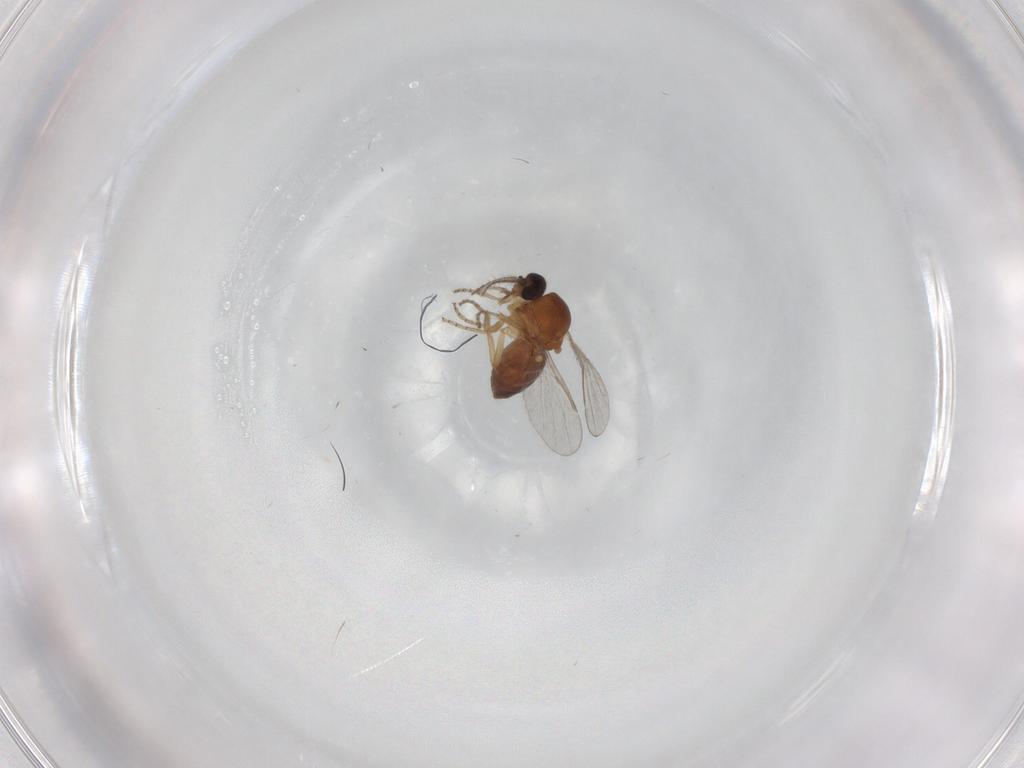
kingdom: Animalia
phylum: Arthropoda
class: Insecta
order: Diptera
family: Ceratopogonidae
